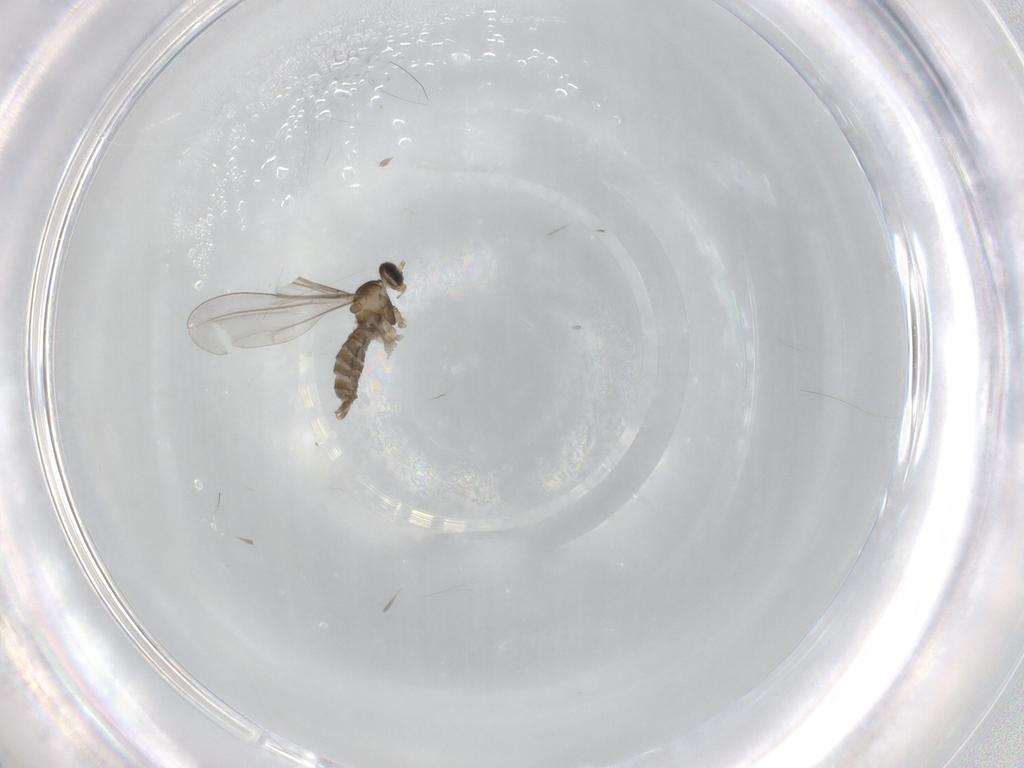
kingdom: Animalia
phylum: Arthropoda
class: Insecta
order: Diptera
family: Cecidomyiidae
